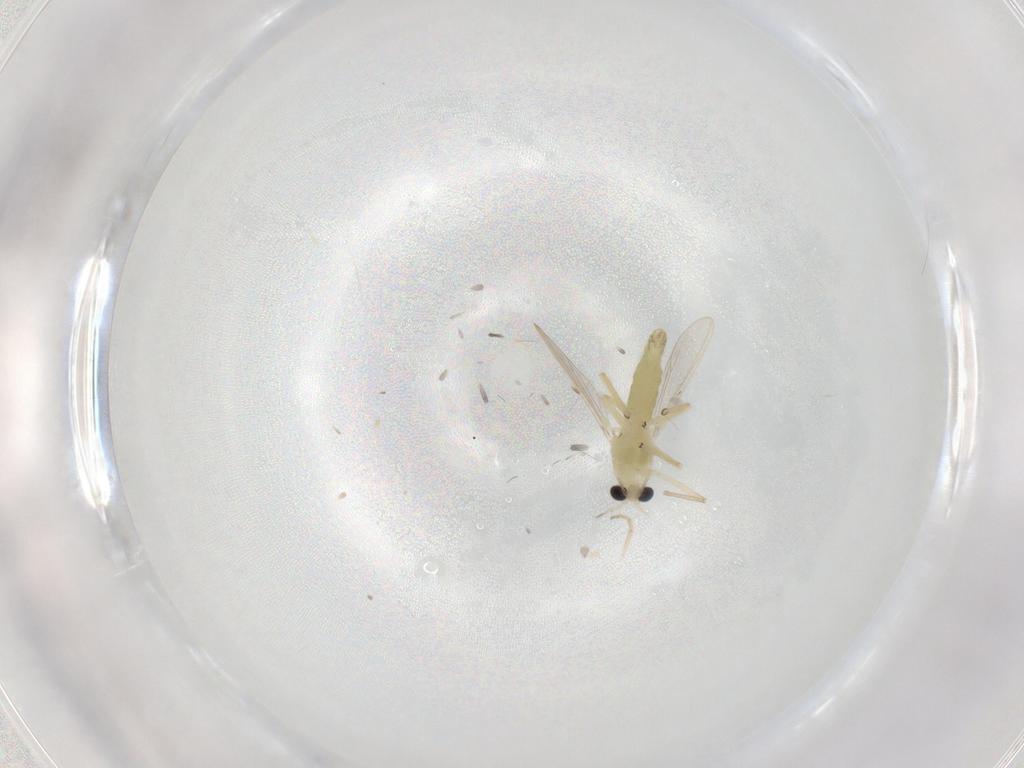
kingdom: Animalia
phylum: Arthropoda
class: Insecta
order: Diptera
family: Chironomidae
